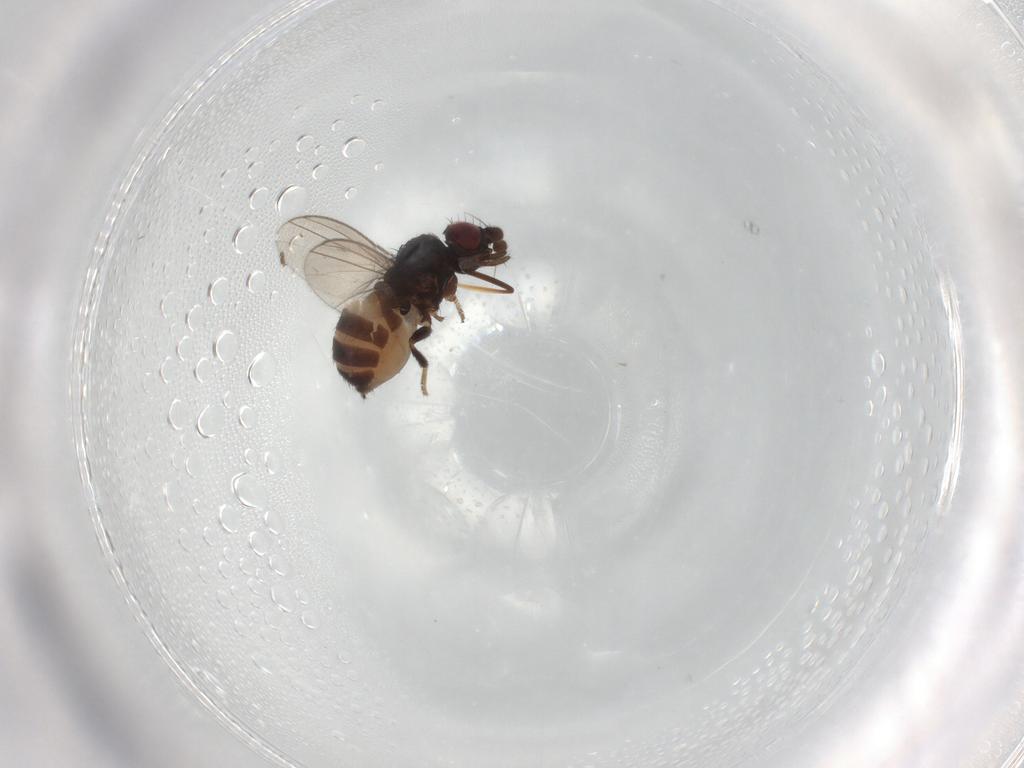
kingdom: Animalia
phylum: Arthropoda
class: Insecta
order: Diptera
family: Milichiidae
